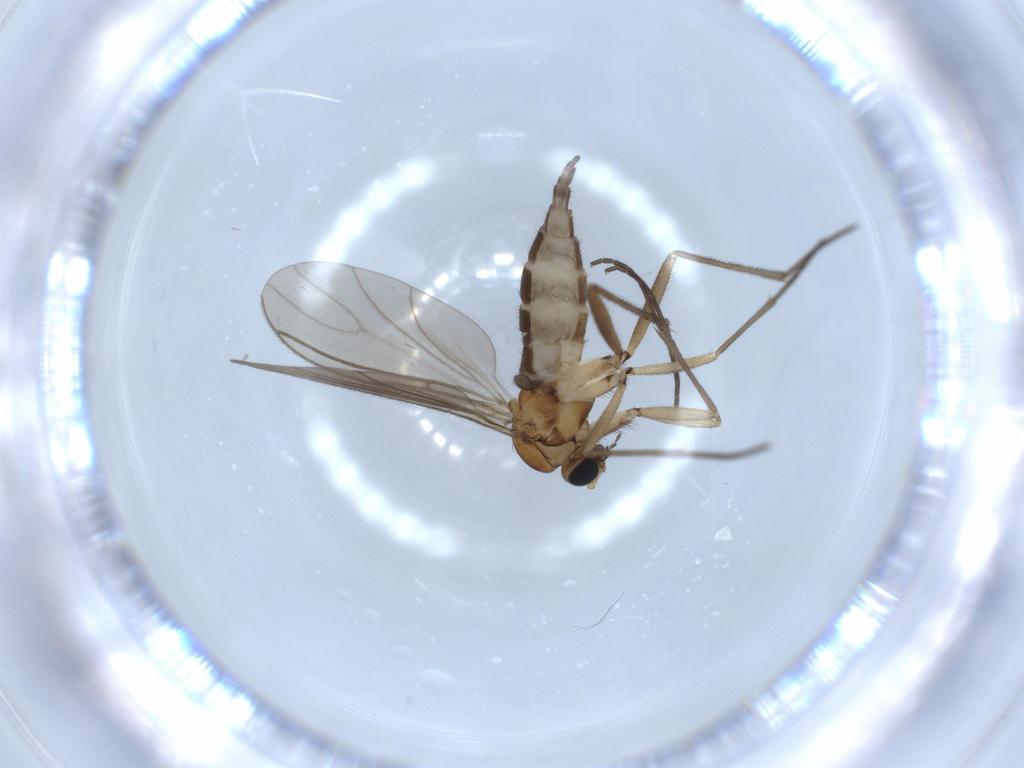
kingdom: Animalia
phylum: Arthropoda
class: Insecta
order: Diptera
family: Sciaridae
